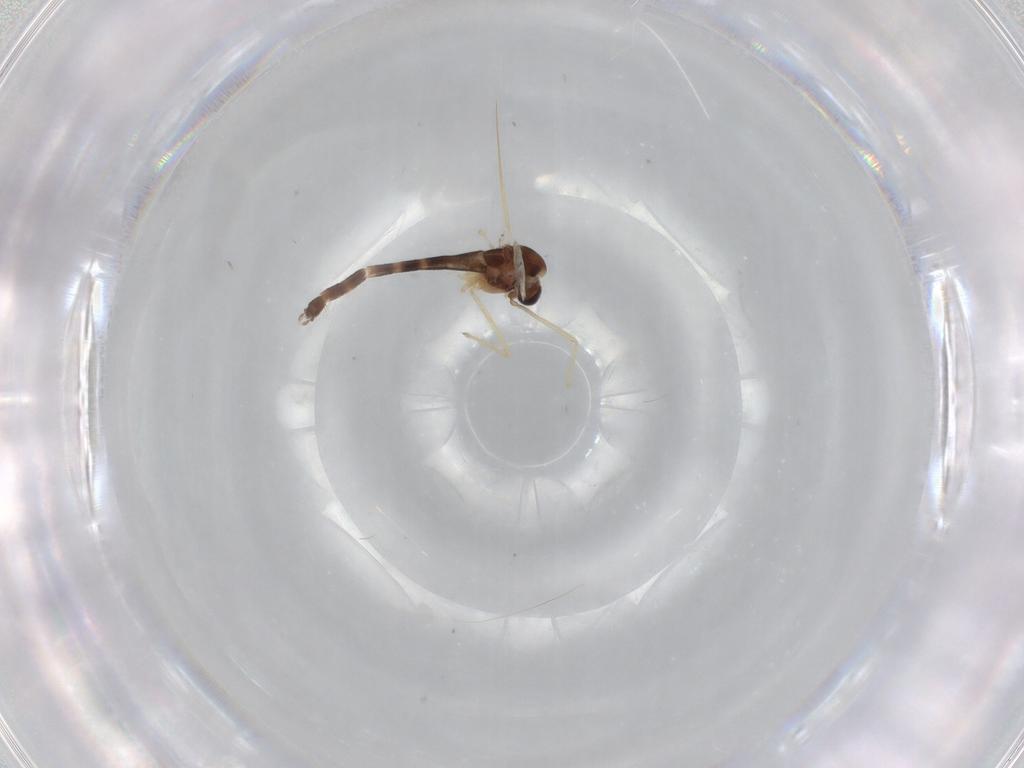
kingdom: Animalia
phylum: Arthropoda
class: Insecta
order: Diptera
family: Chironomidae
